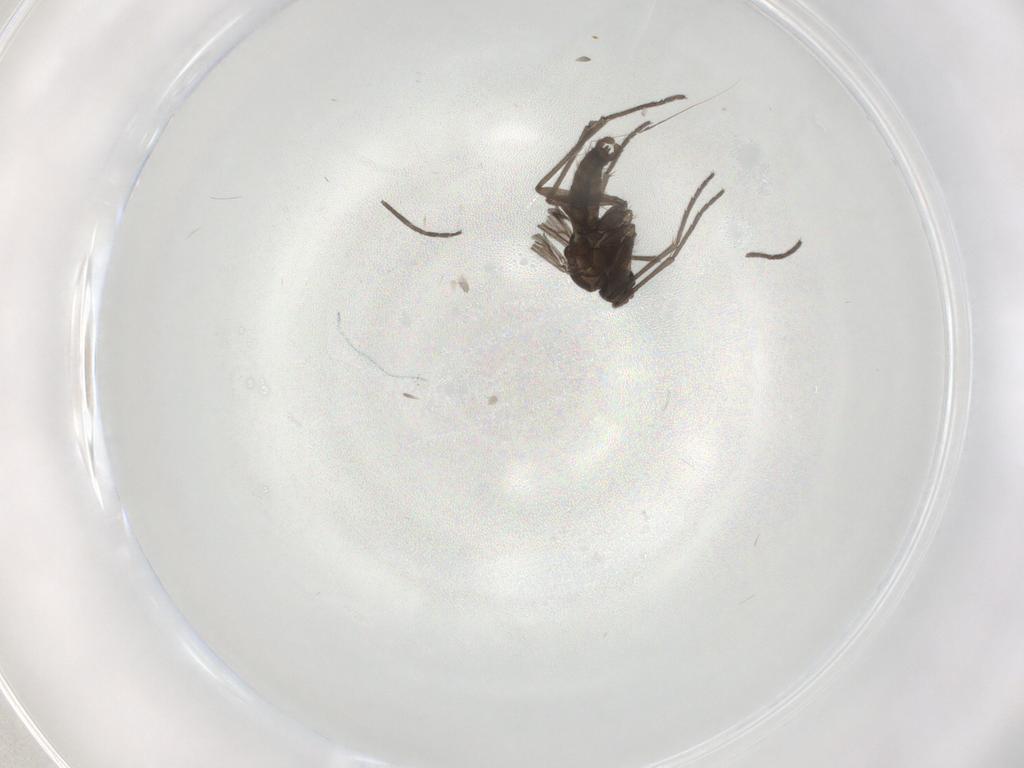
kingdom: Animalia
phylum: Arthropoda
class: Insecta
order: Diptera
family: Sciaridae
